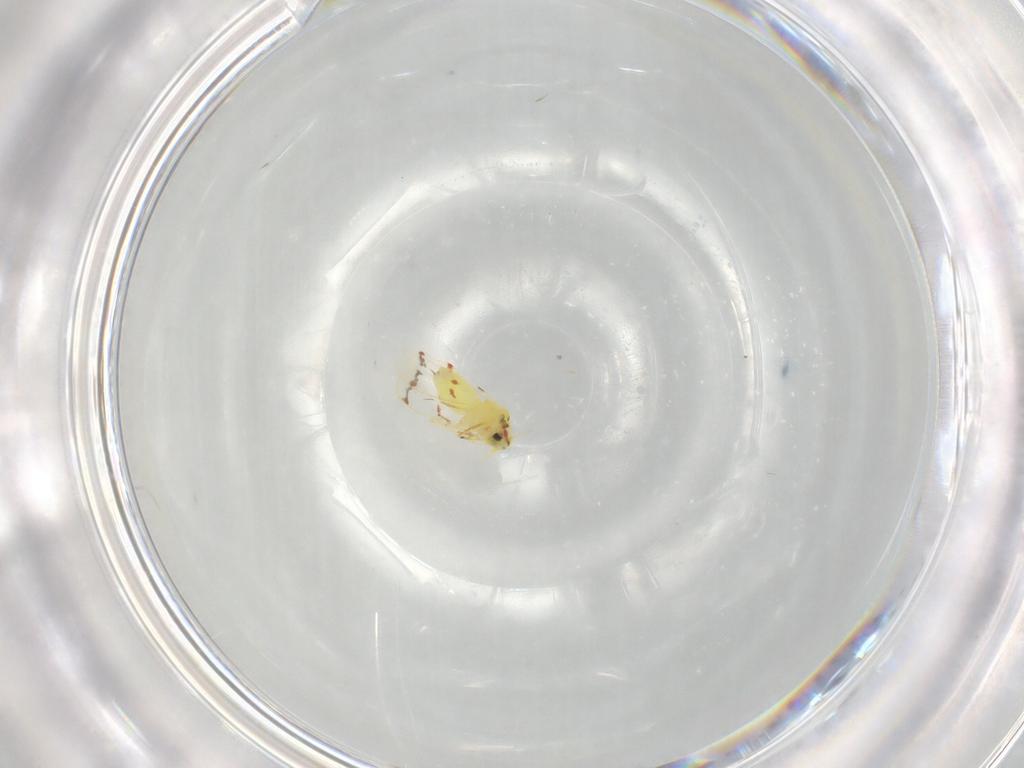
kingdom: Animalia
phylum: Arthropoda
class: Insecta
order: Hemiptera
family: Aleyrodidae
